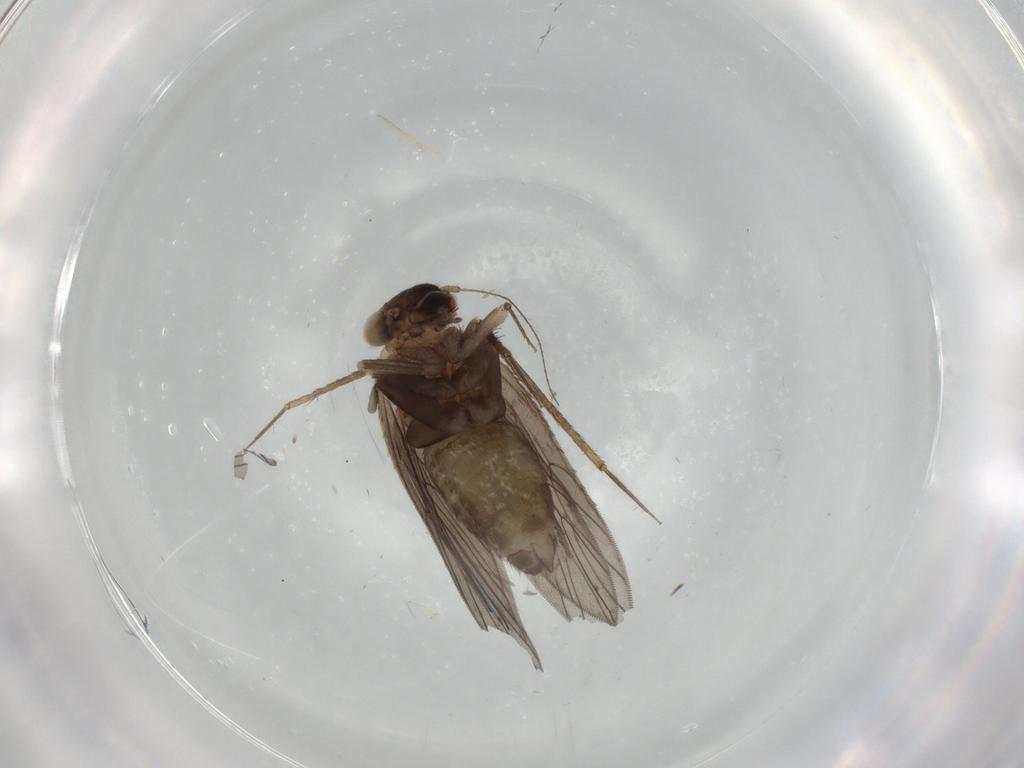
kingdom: Animalia
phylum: Arthropoda
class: Insecta
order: Psocodea
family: Lepidopsocidae
